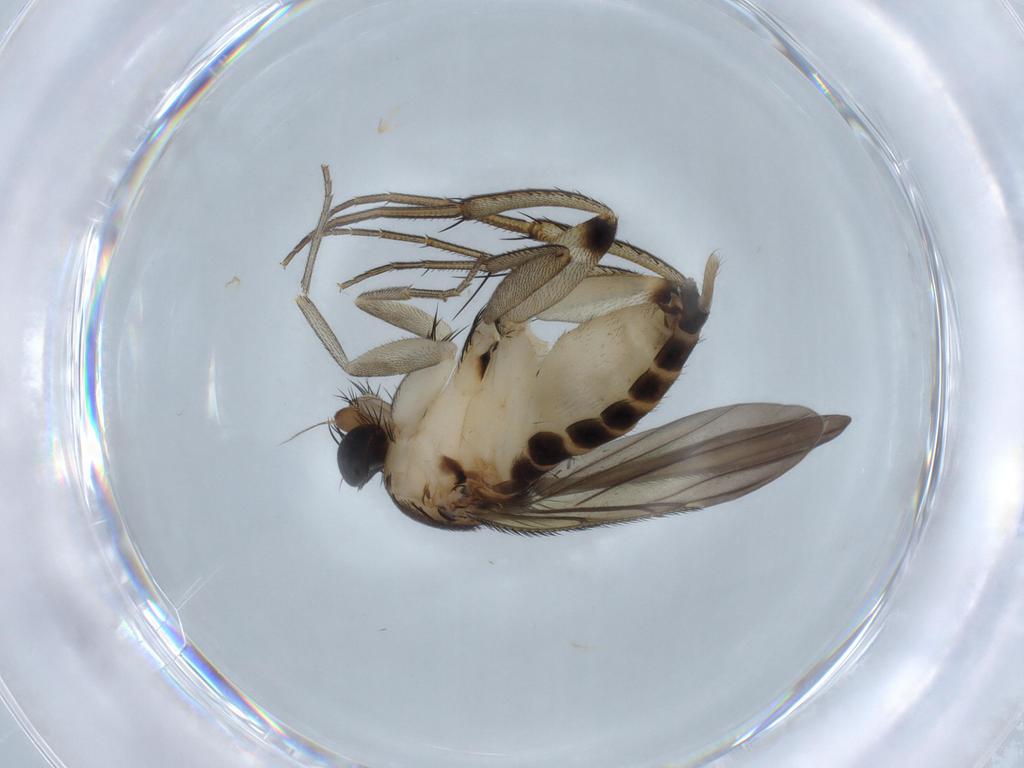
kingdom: Animalia
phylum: Arthropoda
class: Insecta
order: Diptera
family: Phoridae
